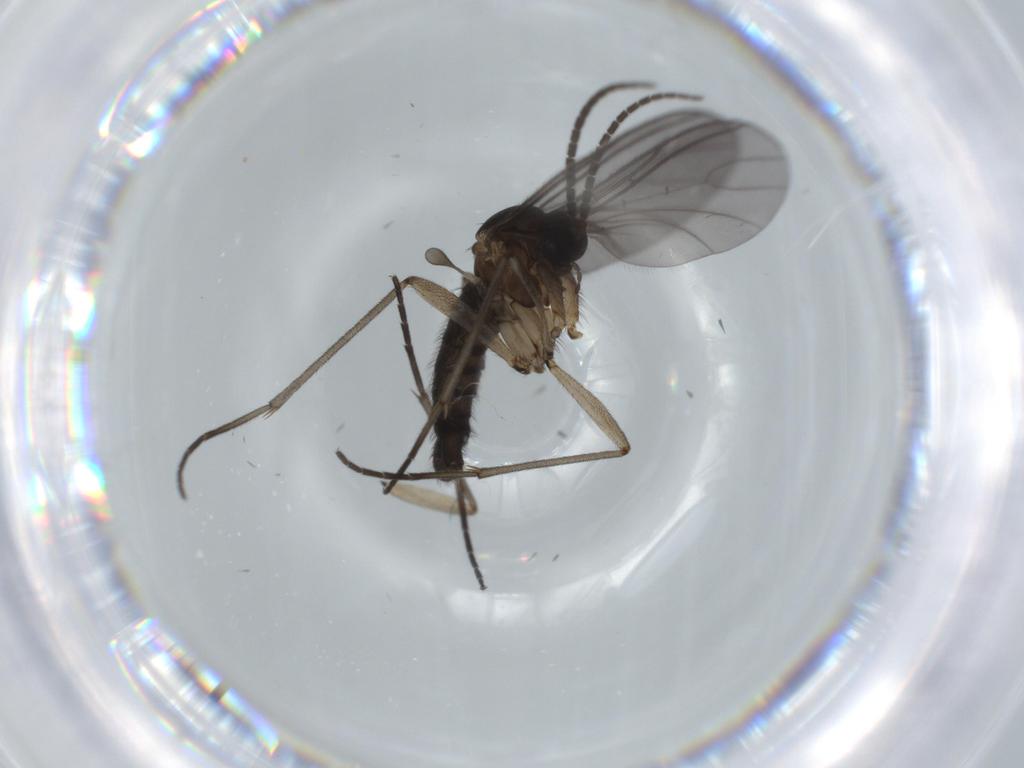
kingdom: Animalia
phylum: Arthropoda
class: Insecta
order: Diptera
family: Sciaridae
